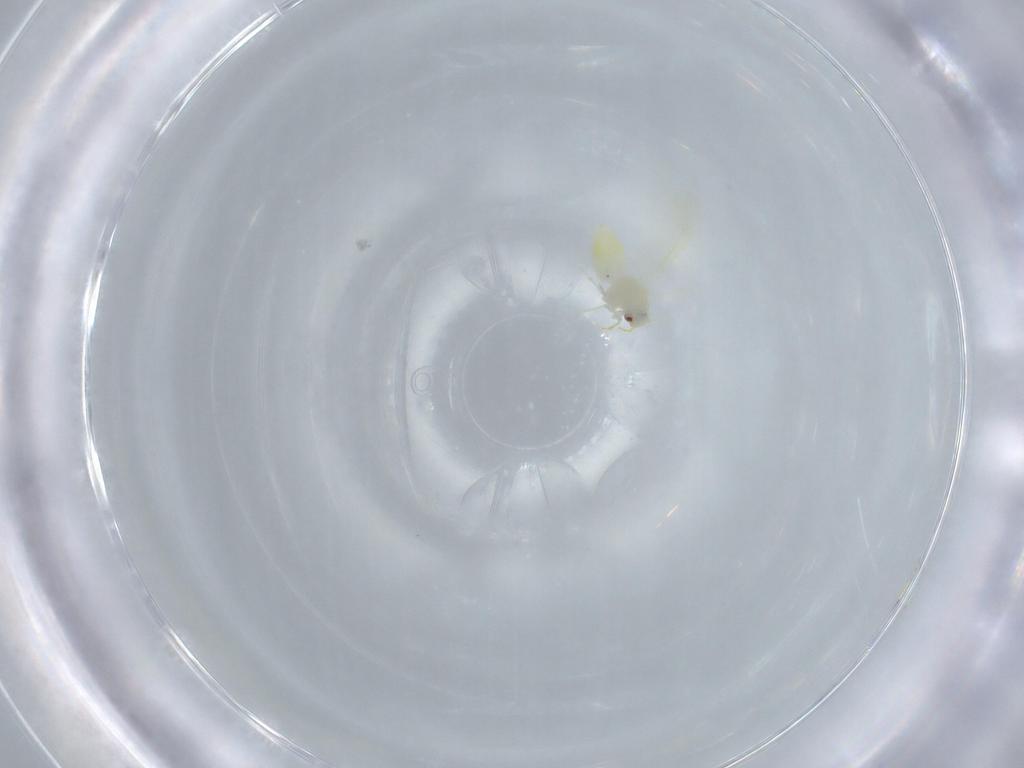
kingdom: Animalia
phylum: Arthropoda
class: Insecta
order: Hemiptera
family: Aleyrodidae
